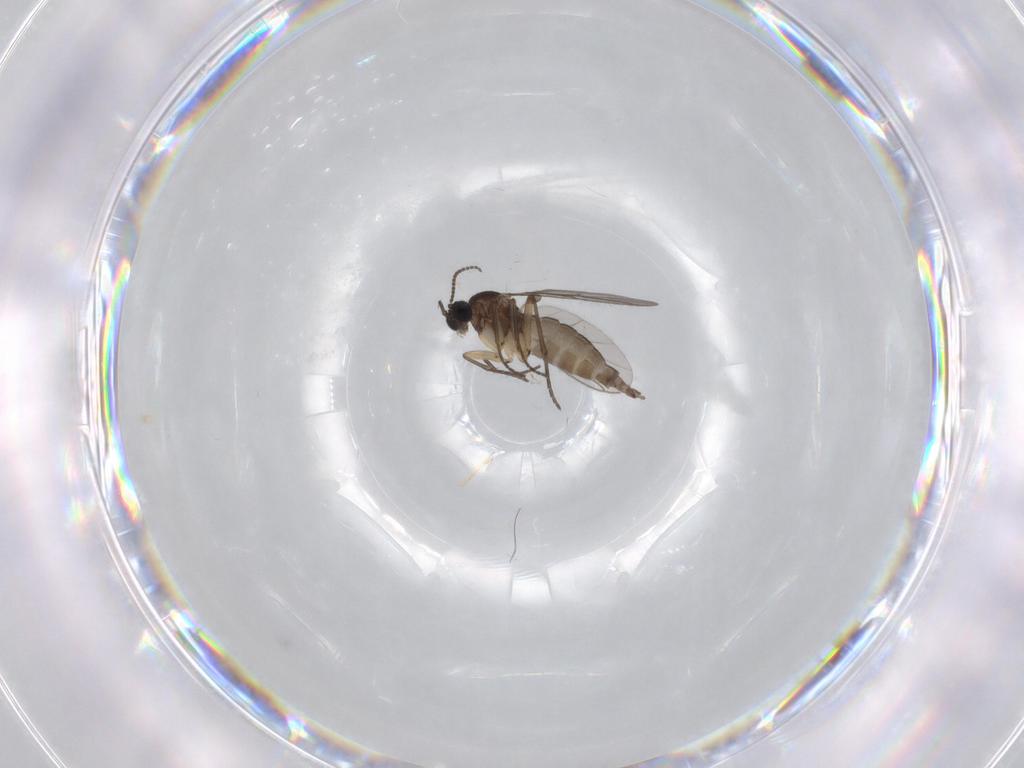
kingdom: Animalia
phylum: Arthropoda
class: Insecta
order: Diptera
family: Sciaridae
